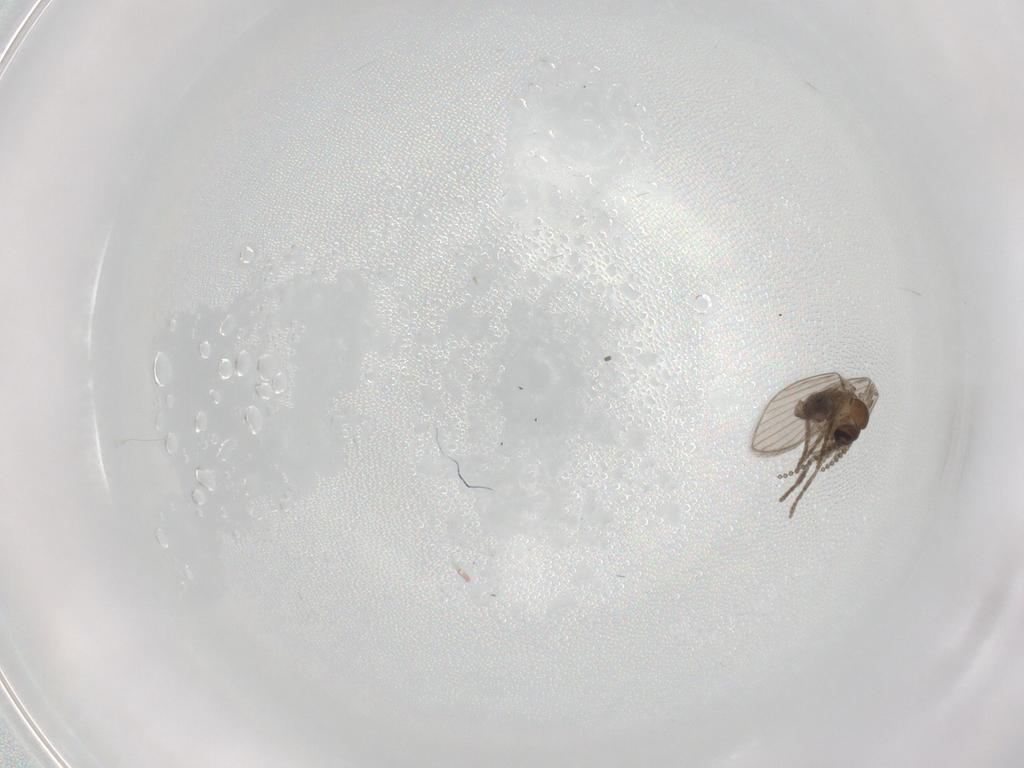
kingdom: Animalia
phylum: Arthropoda
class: Insecta
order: Diptera
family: Psychodidae
